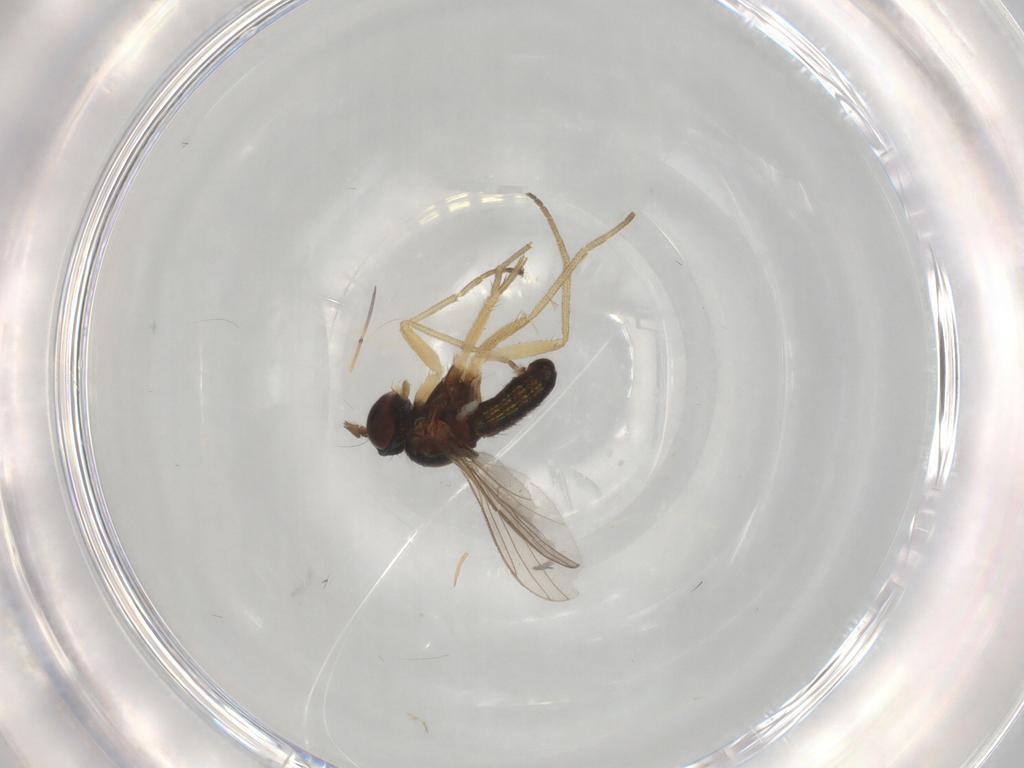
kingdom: Animalia
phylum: Arthropoda
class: Insecta
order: Diptera
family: Dolichopodidae
